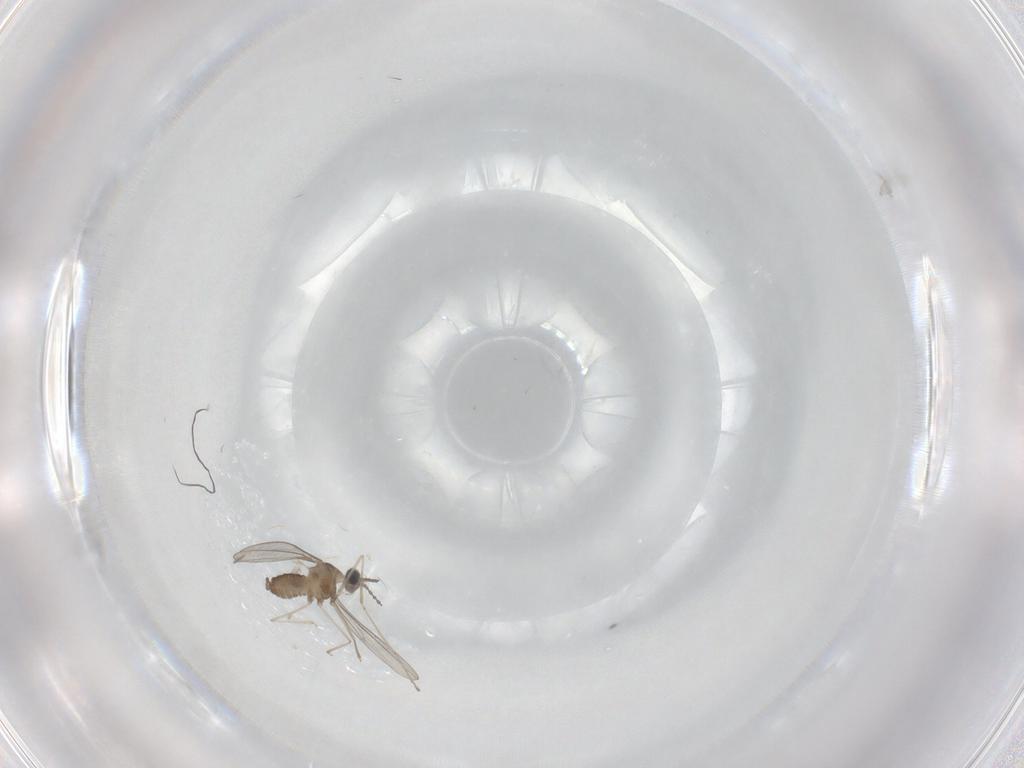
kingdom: Animalia
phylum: Arthropoda
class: Insecta
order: Diptera
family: Cecidomyiidae
